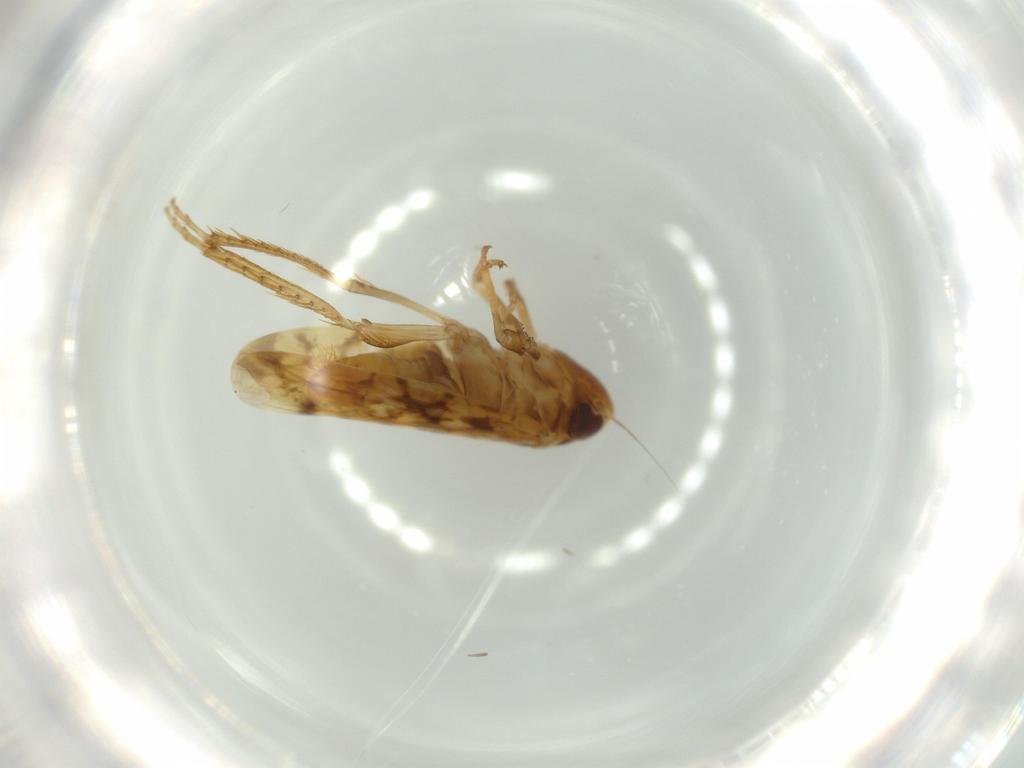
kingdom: Animalia
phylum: Arthropoda
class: Insecta
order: Hemiptera
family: Cicadellidae
